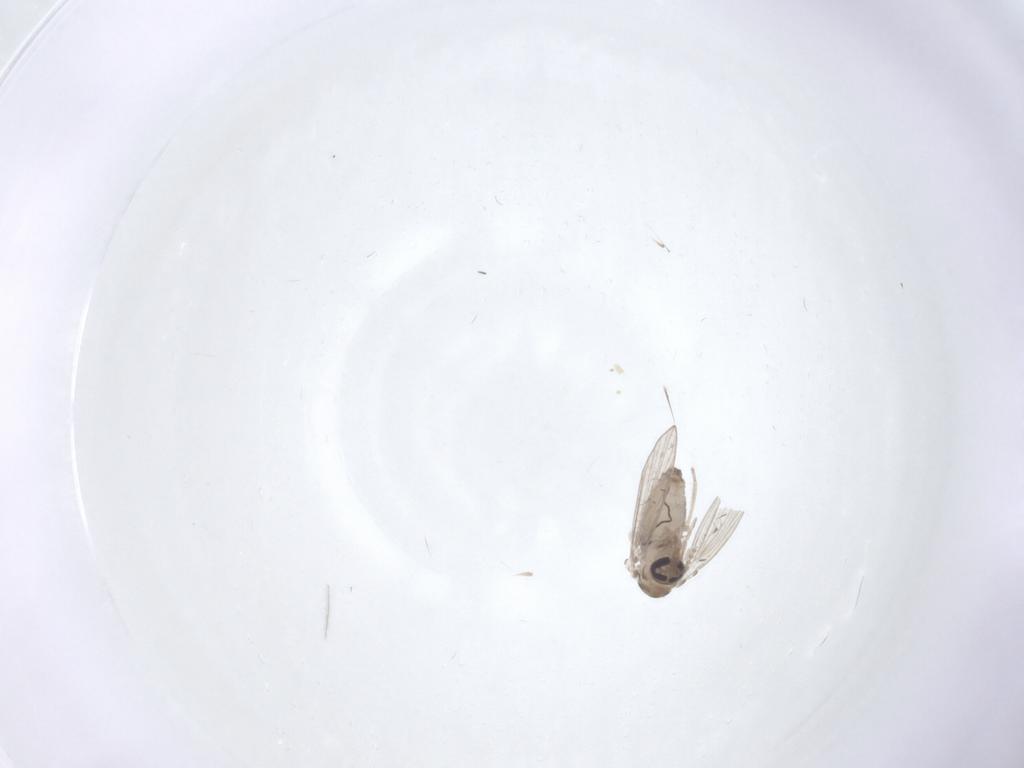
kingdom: Animalia
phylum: Arthropoda
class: Insecta
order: Diptera
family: Psychodidae
